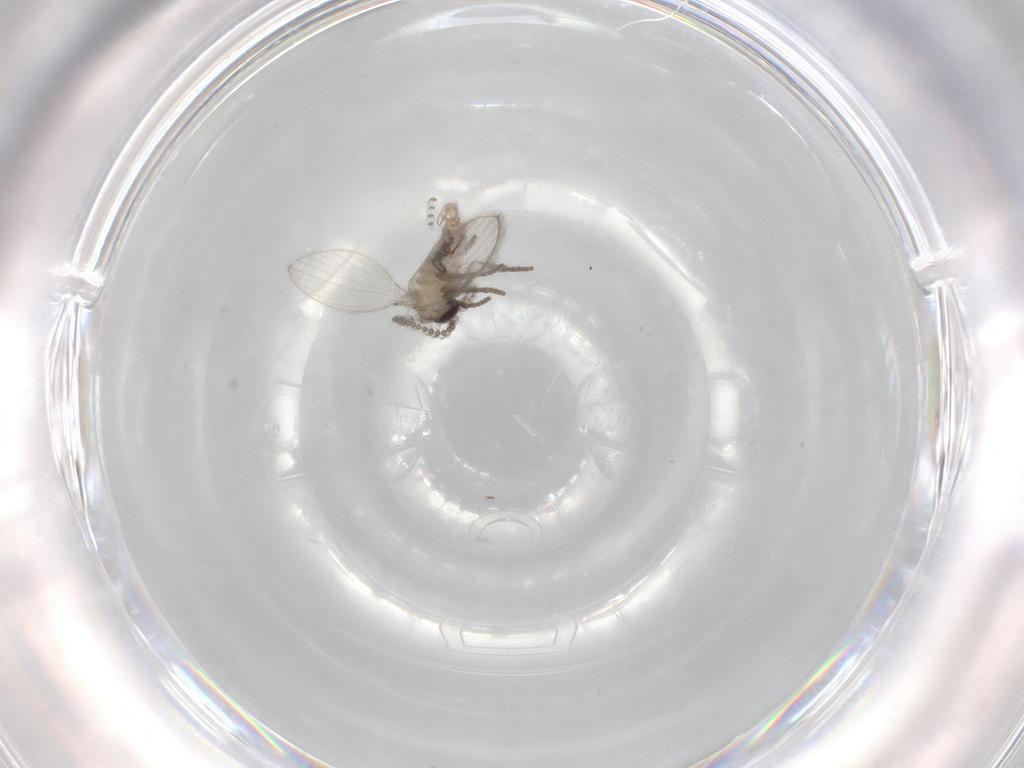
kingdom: Animalia
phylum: Arthropoda
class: Insecta
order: Diptera
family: Psychodidae
